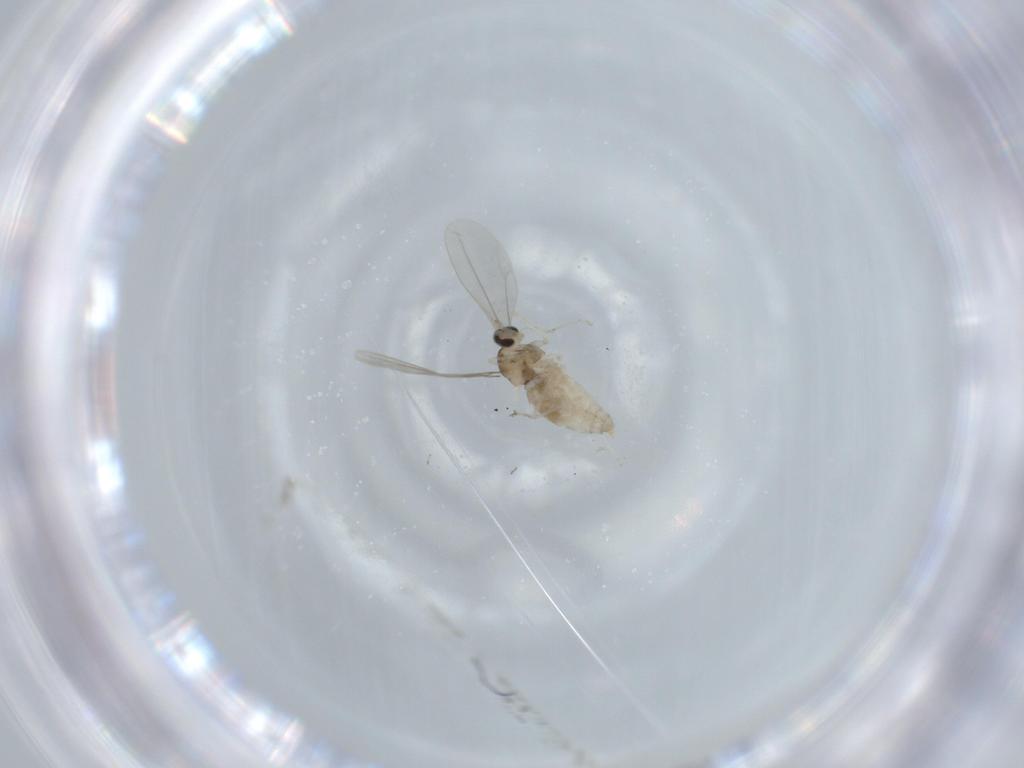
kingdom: Animalia
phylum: Arthropoda
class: Insecta
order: Diptera
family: Cecidomyiidae
